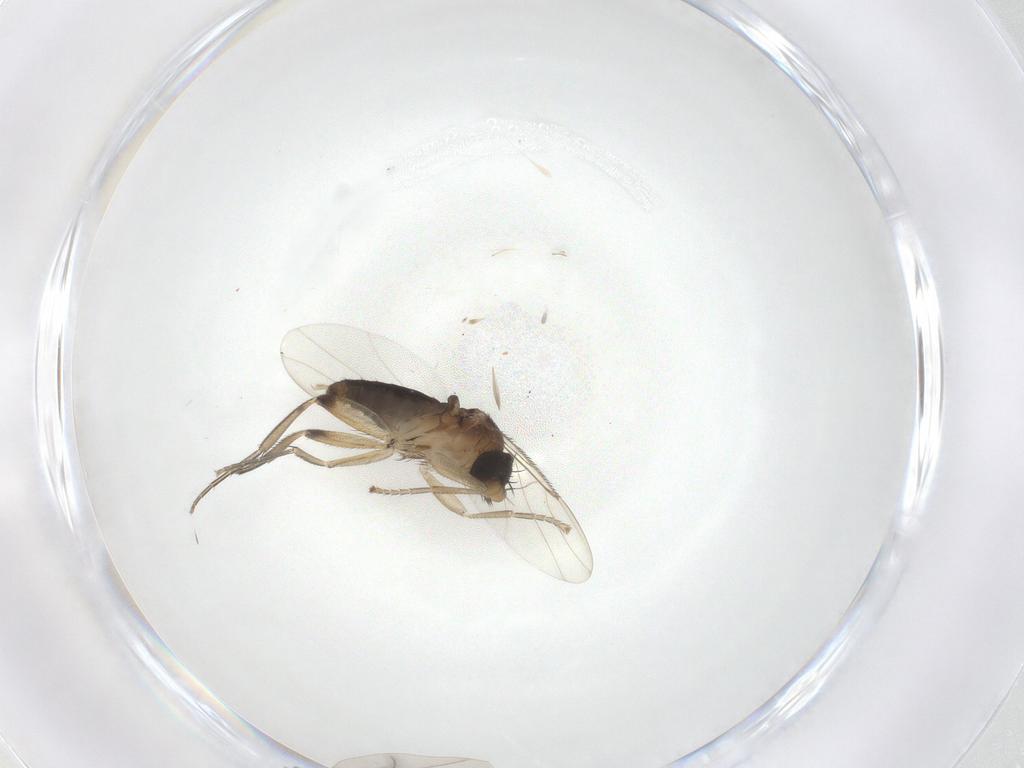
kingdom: Animalia
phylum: Arthropoda
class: Insecta
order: Diptera
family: Phoridae
